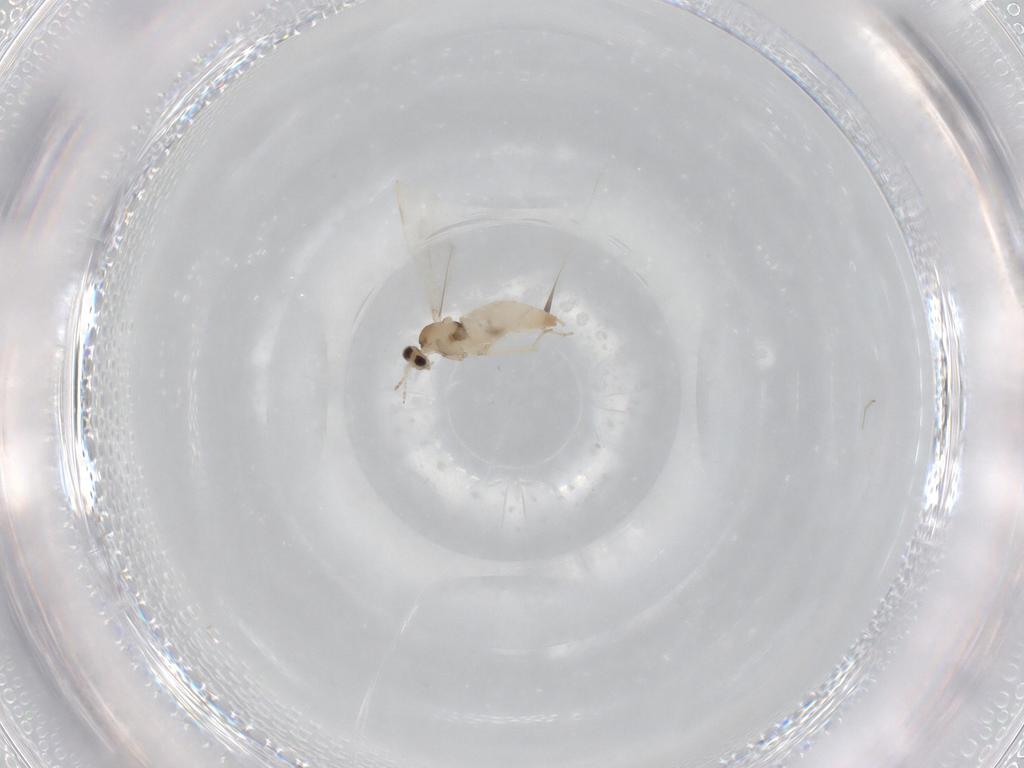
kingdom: Animalia
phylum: Arthropoda
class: Insecta
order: Diptera
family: Cecidomyiidae
